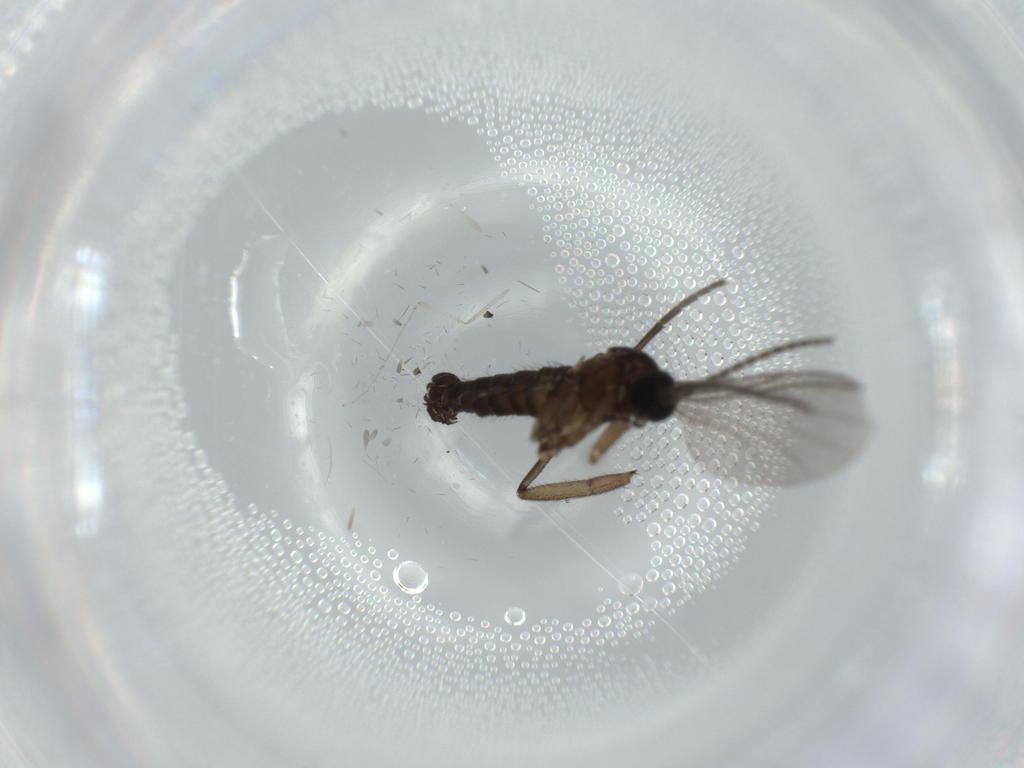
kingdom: Animalia
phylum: Arthropoda
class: Insecta
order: Diptera
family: Sciaridae
